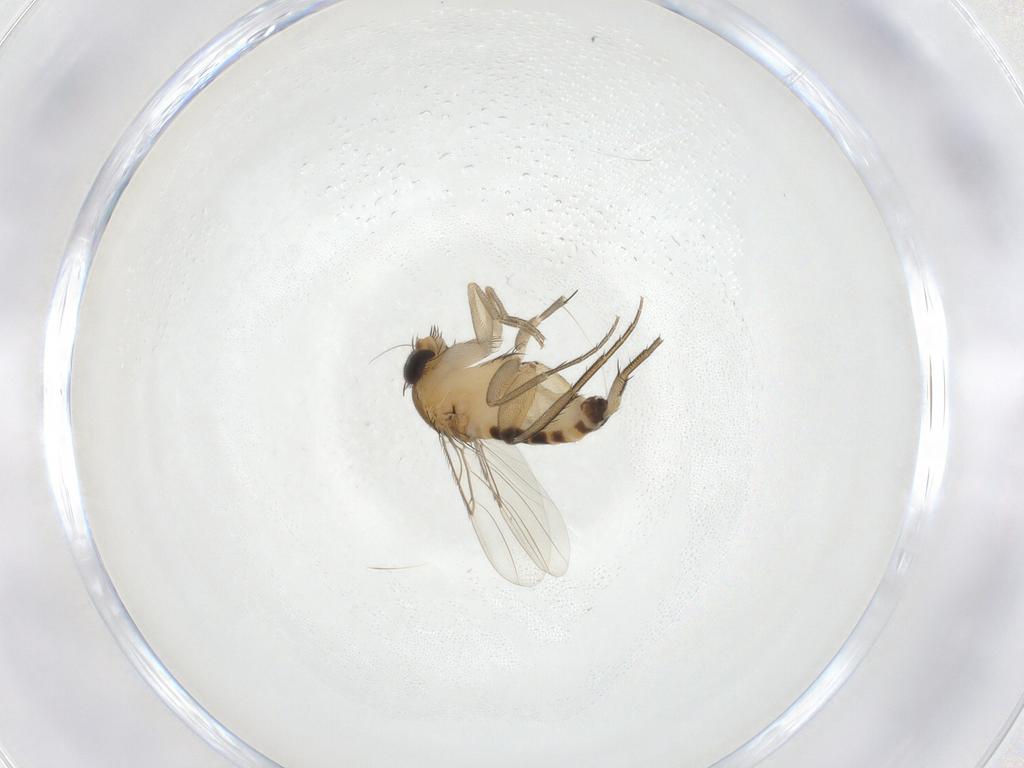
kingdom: Animalia
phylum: Arthropoda
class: Insecta
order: Diptera
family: Phoridae
